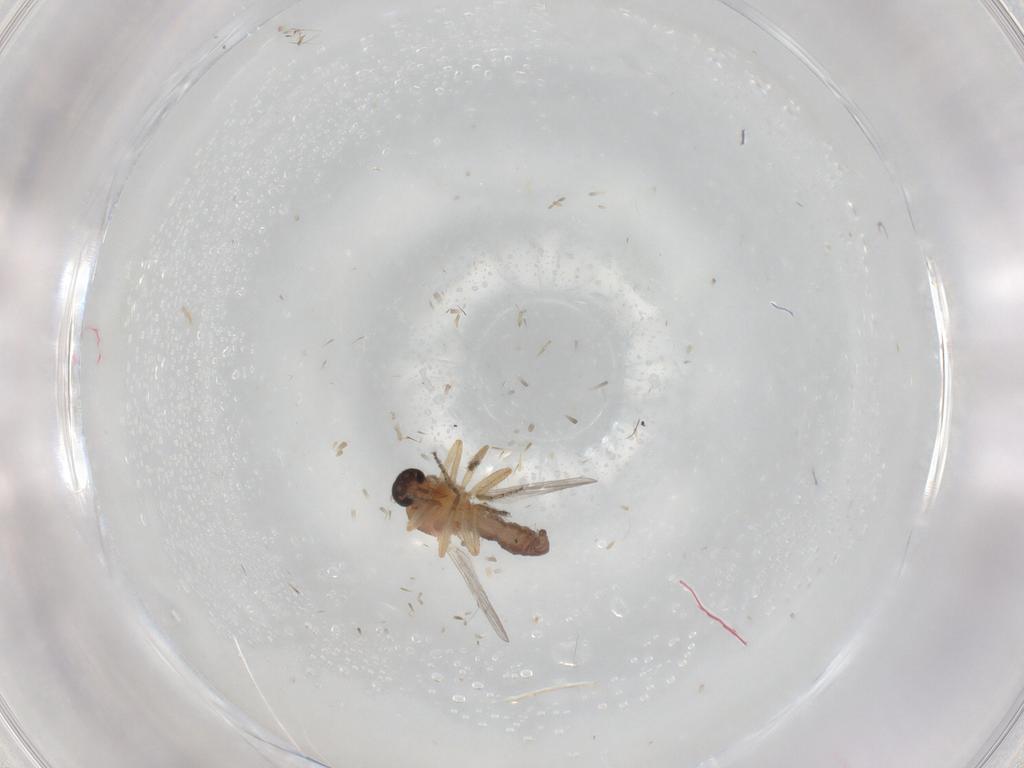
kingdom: Animalia
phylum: Arthropoda
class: Insecta
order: Diptera
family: Ceratopogonidae
